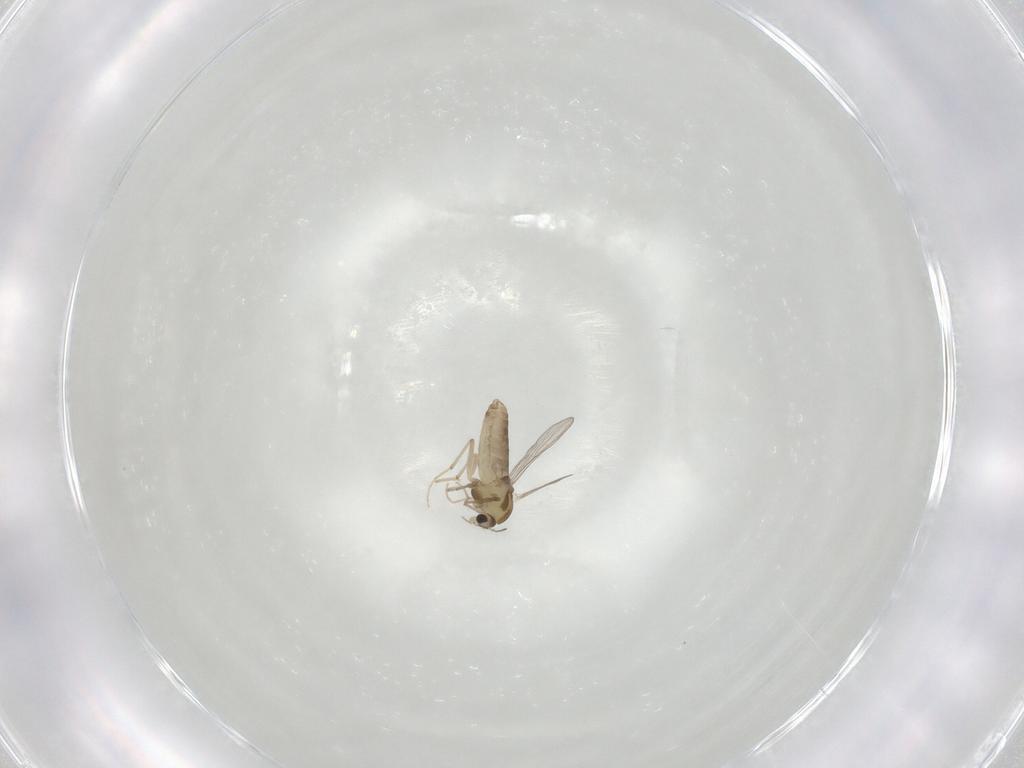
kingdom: Animalia
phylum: Arthropoda
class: Insecta
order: Diptera
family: Chironomidae
